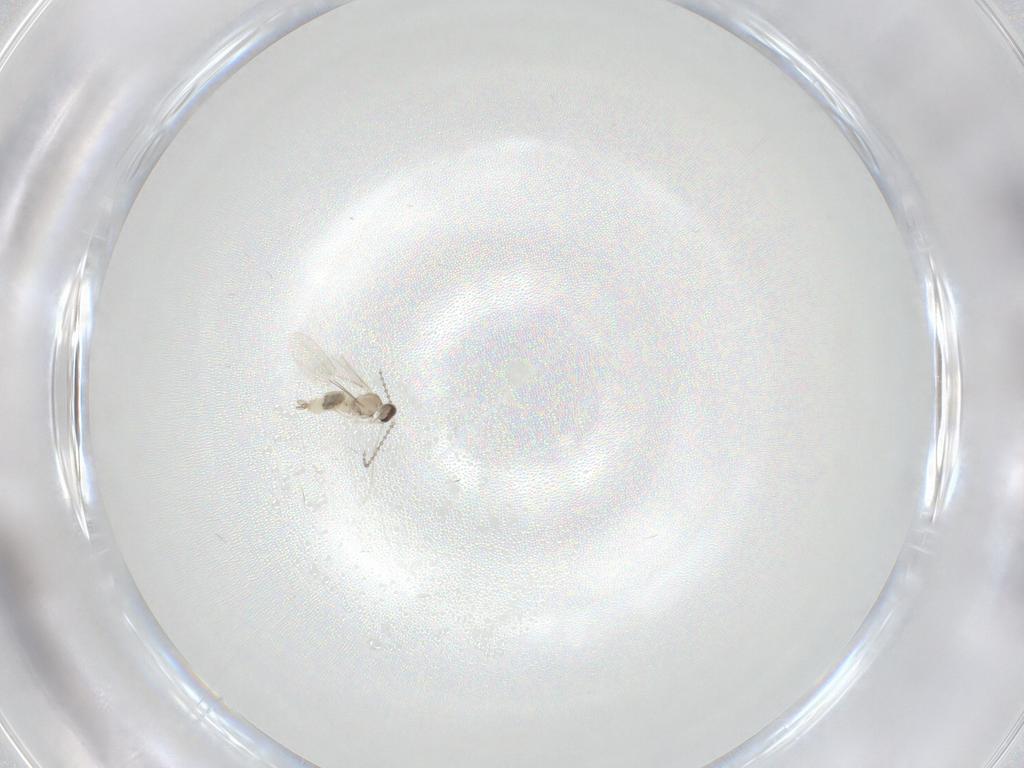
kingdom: Animalia
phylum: Arthropoda
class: Insecta
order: Diptera
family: Cecidomyiidae
